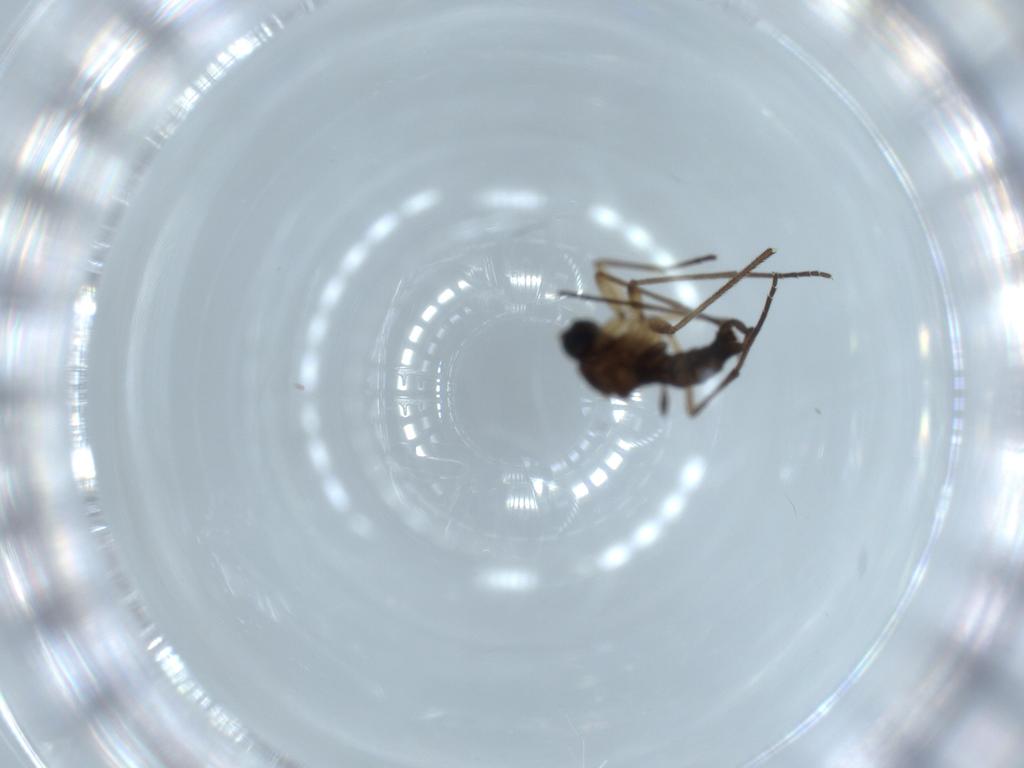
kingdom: Animalia
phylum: Arthropoda
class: Insecta
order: Diptera
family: Sciaridae
